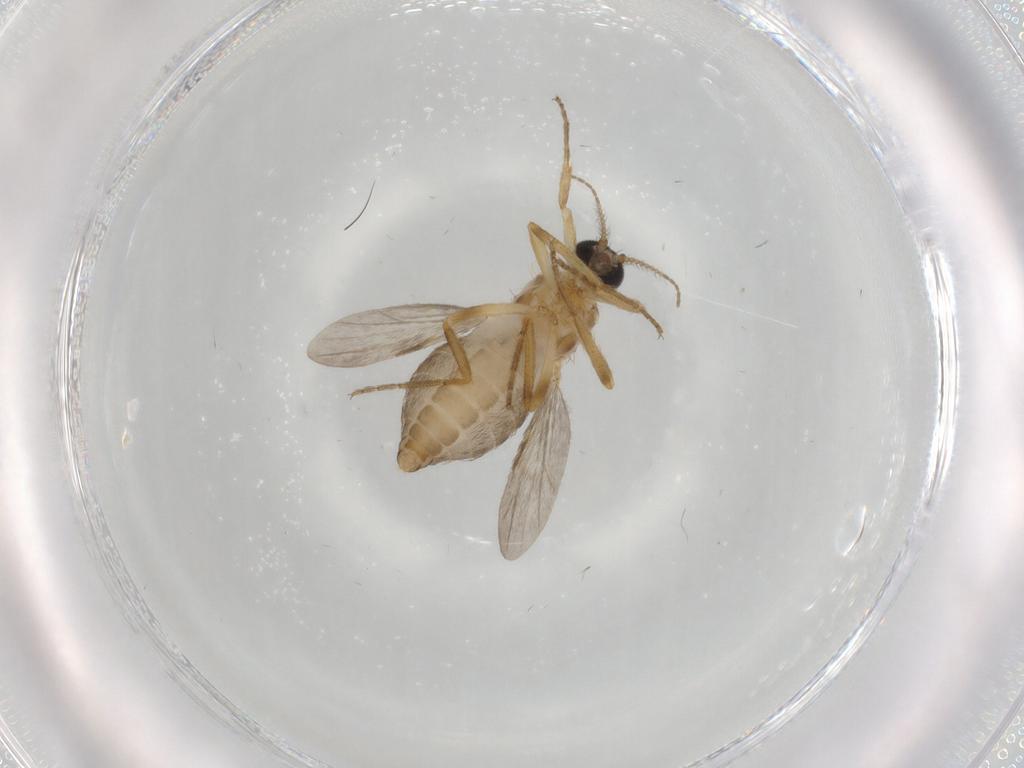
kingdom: Animalia
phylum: Arthropoda
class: Insecta
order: Diptera
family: Ceratopogonidae
